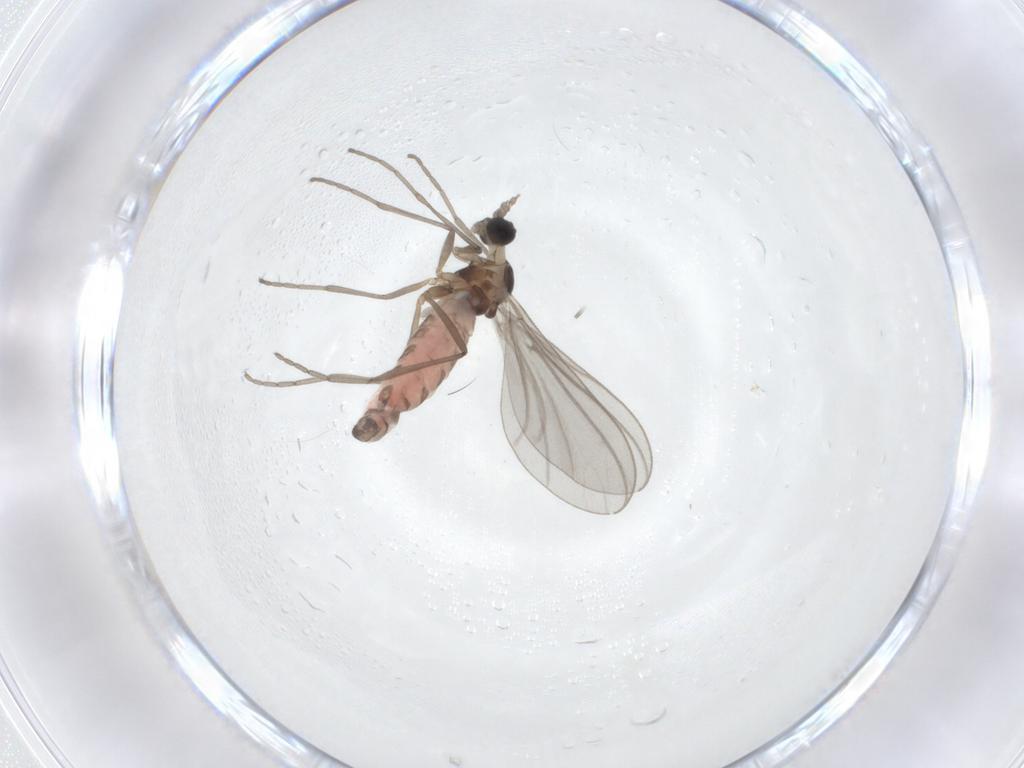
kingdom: Animalia
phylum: Arthropoda
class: Insecta
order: Diptera
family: Cecidomyiidae
